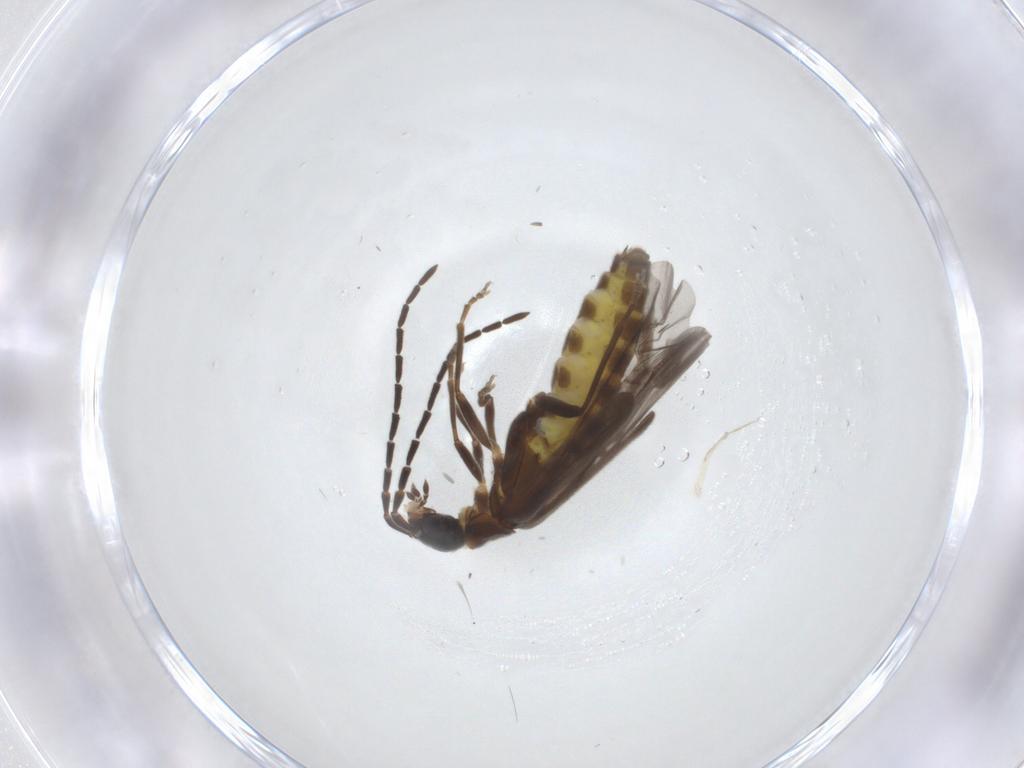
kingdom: Animalia
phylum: Arthropoda
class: Insecta
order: Coleoptera
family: Cantharidae
